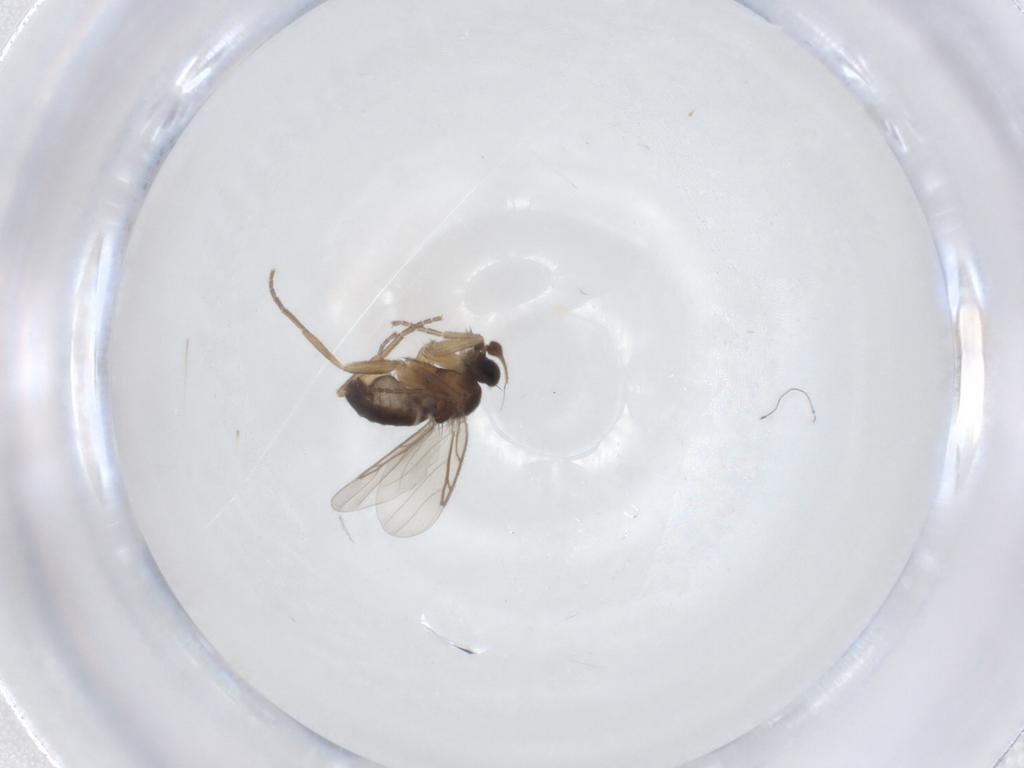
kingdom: Animalia
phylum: Arthropoda
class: Insecta
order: Diptera
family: Phoridae
